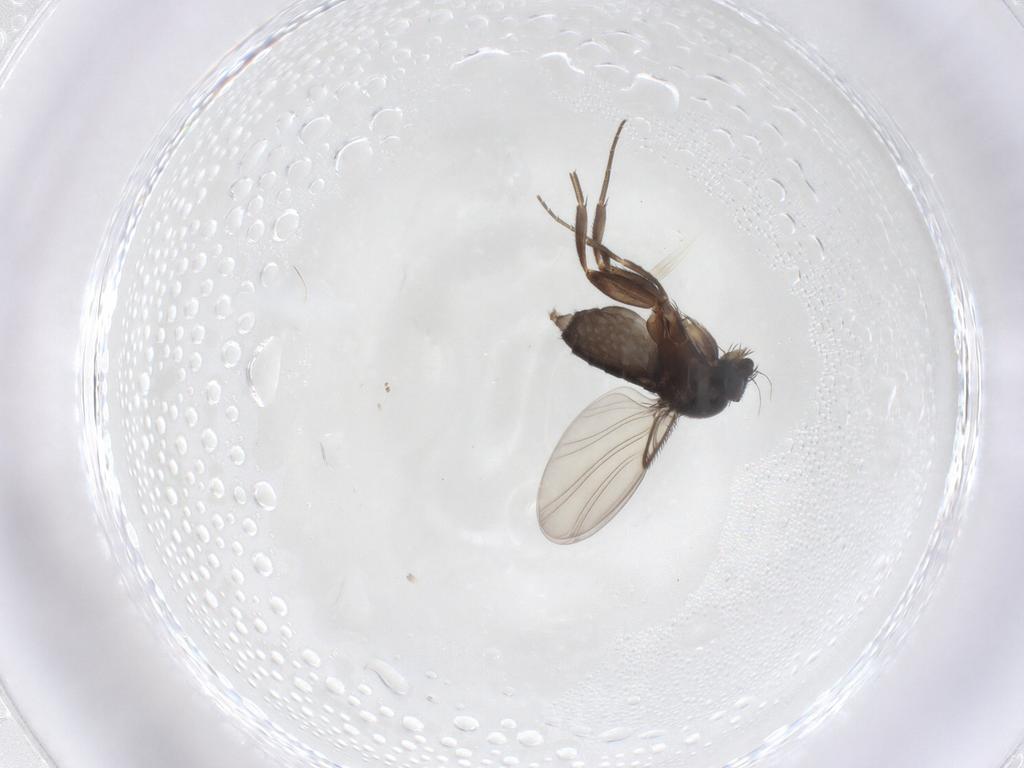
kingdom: Animalia
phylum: Arthropoda
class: Insecta
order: Diptera
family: Phoridae
